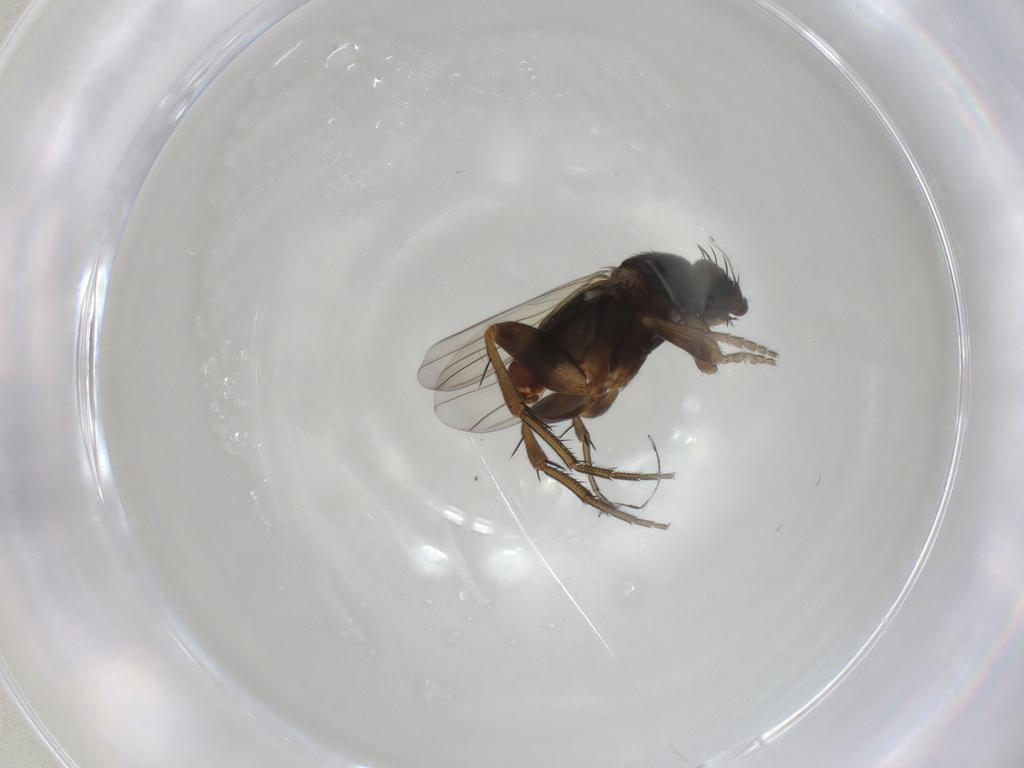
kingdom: Animalia
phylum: Arthropoda
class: Insecta
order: Diptera
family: Phoridae
